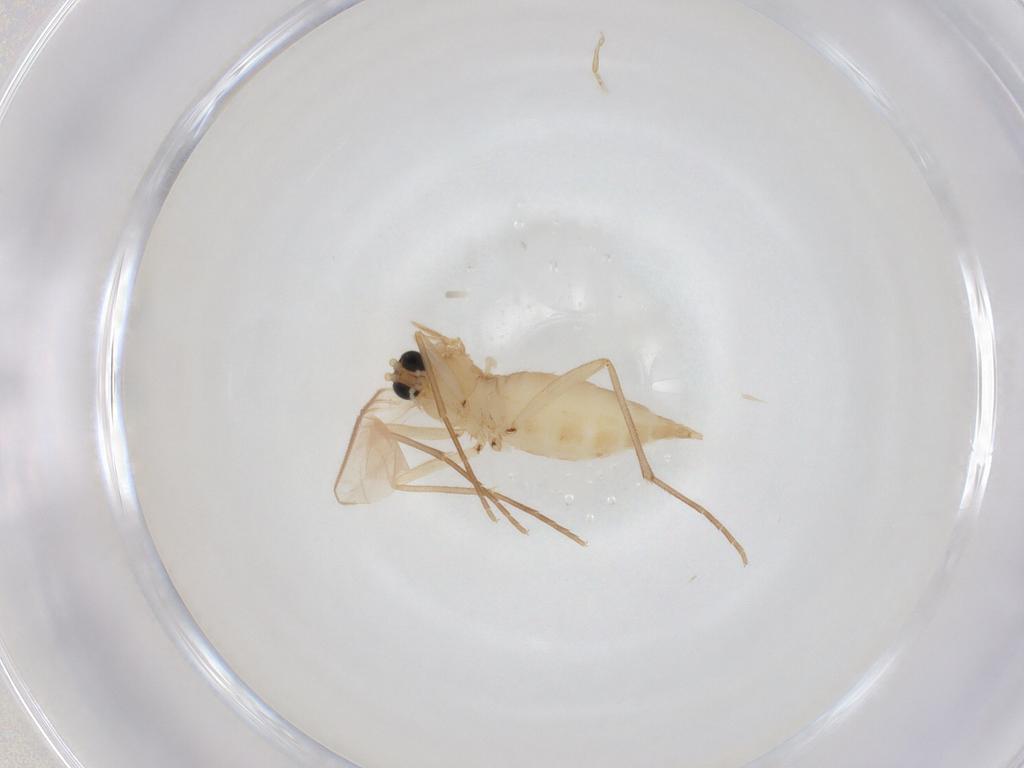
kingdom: Animalia
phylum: Arthropoda
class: Insecta
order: Diptera
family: Sciaridae
